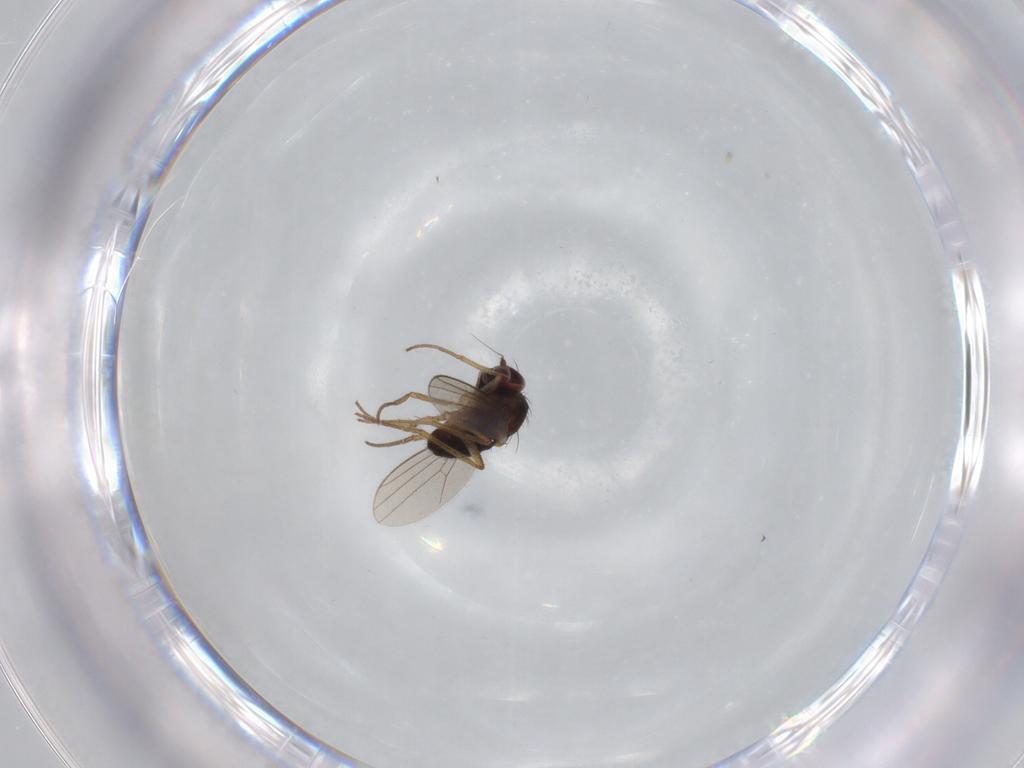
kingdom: Animalia
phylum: Arthropoda
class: Insecta
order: Diptera
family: Dolichopodidae
